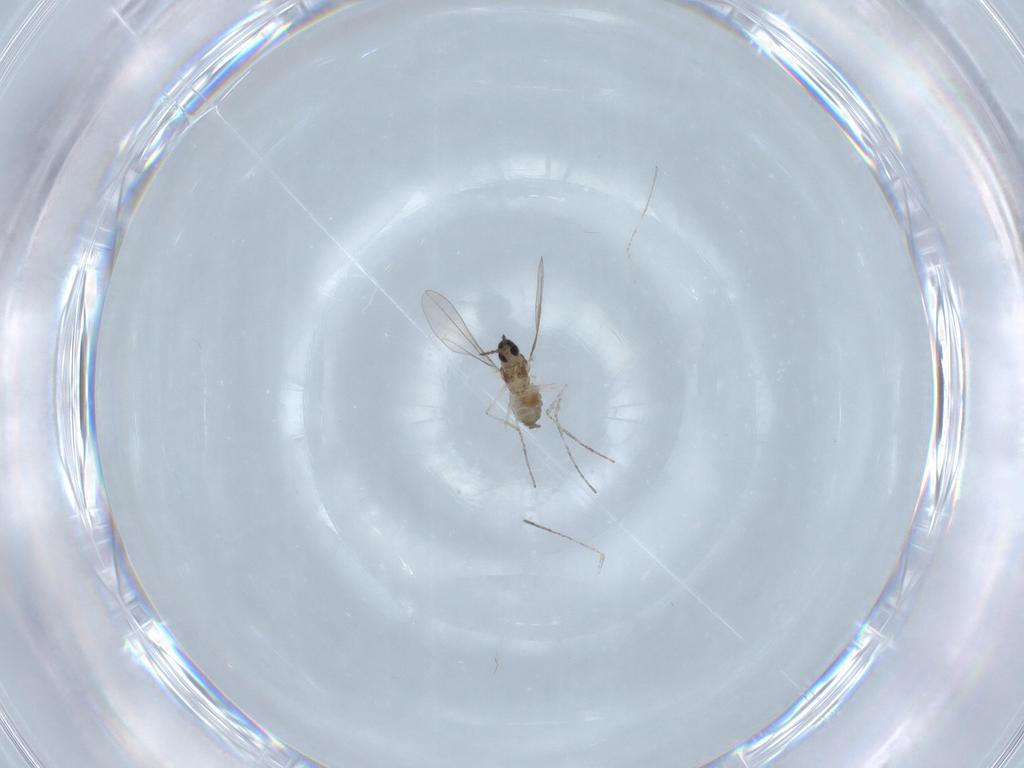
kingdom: Animalia
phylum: Arthropoda
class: Insecta
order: Diptera
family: Cecidomyiidae
